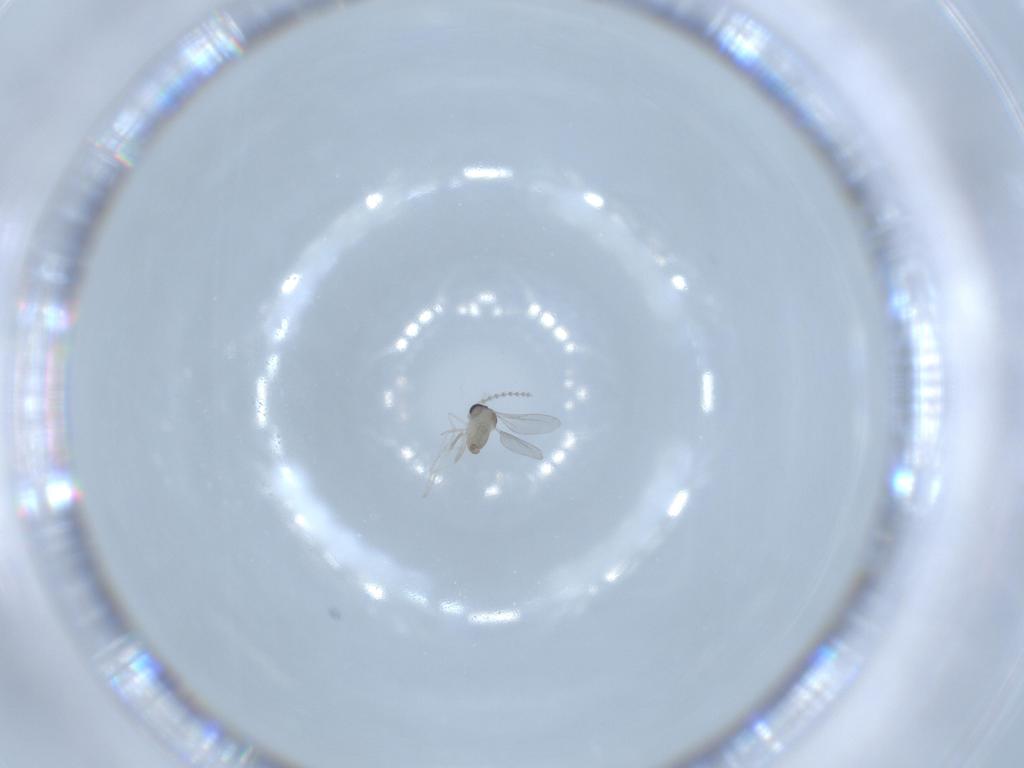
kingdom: Animalia
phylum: Arthropoda
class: Insecta
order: Diptera
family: Cecidomyiidae
